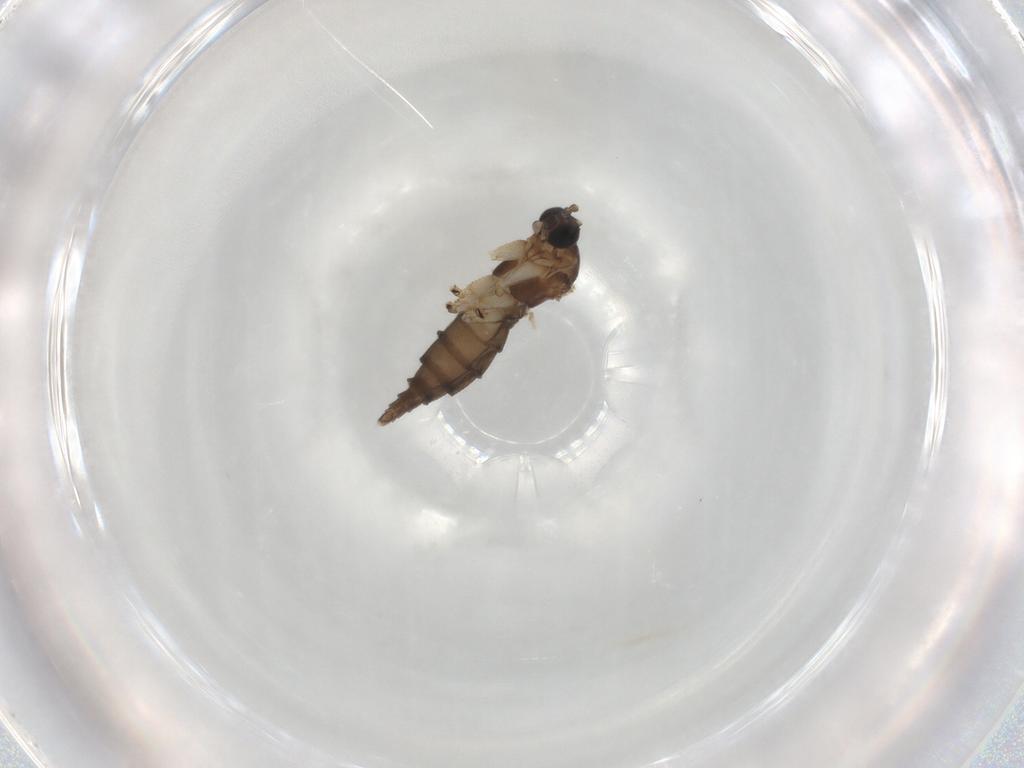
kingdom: Animalia
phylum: Arthropoda
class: Insecta
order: Diptera
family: Sciaridae
